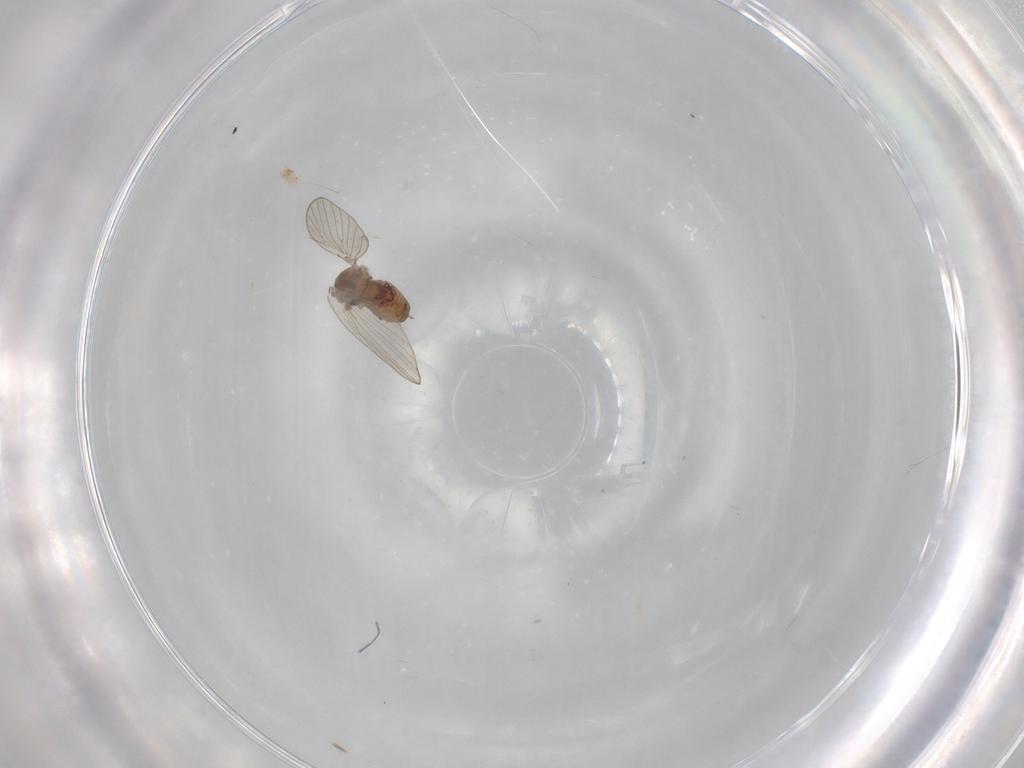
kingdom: Animalia
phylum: Arthropoda
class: Insecta
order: Diptera
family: Psychodidae
